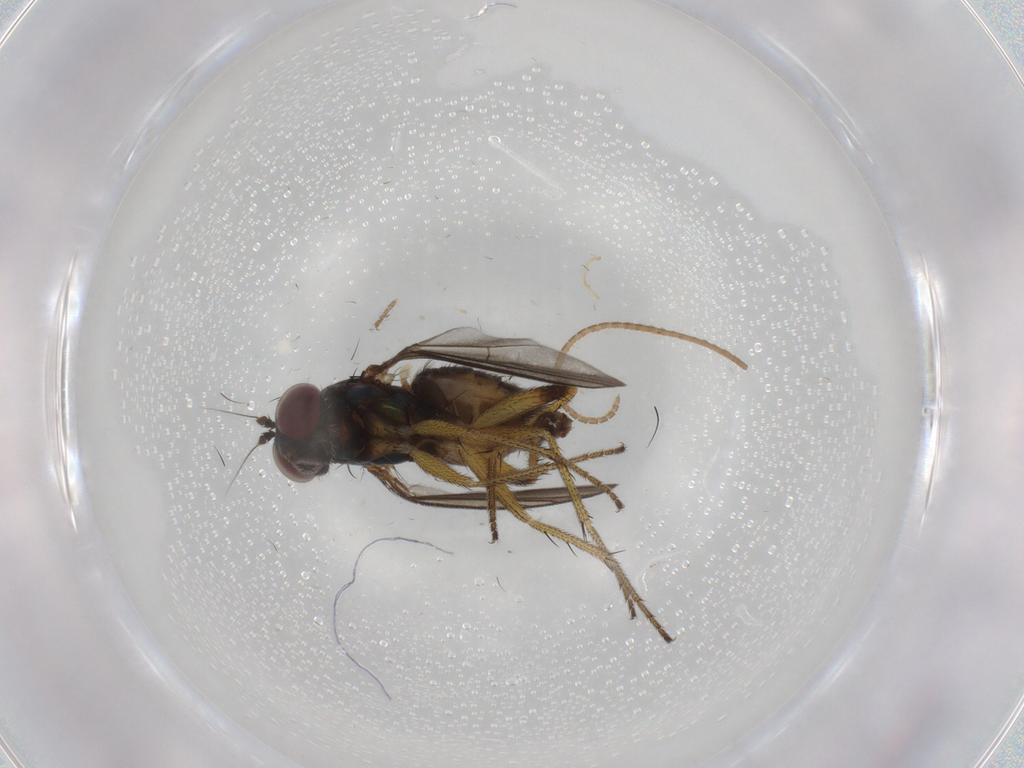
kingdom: Animalia
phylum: Arthropoda
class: Insecta
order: Diptera
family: Dolichopodidae
